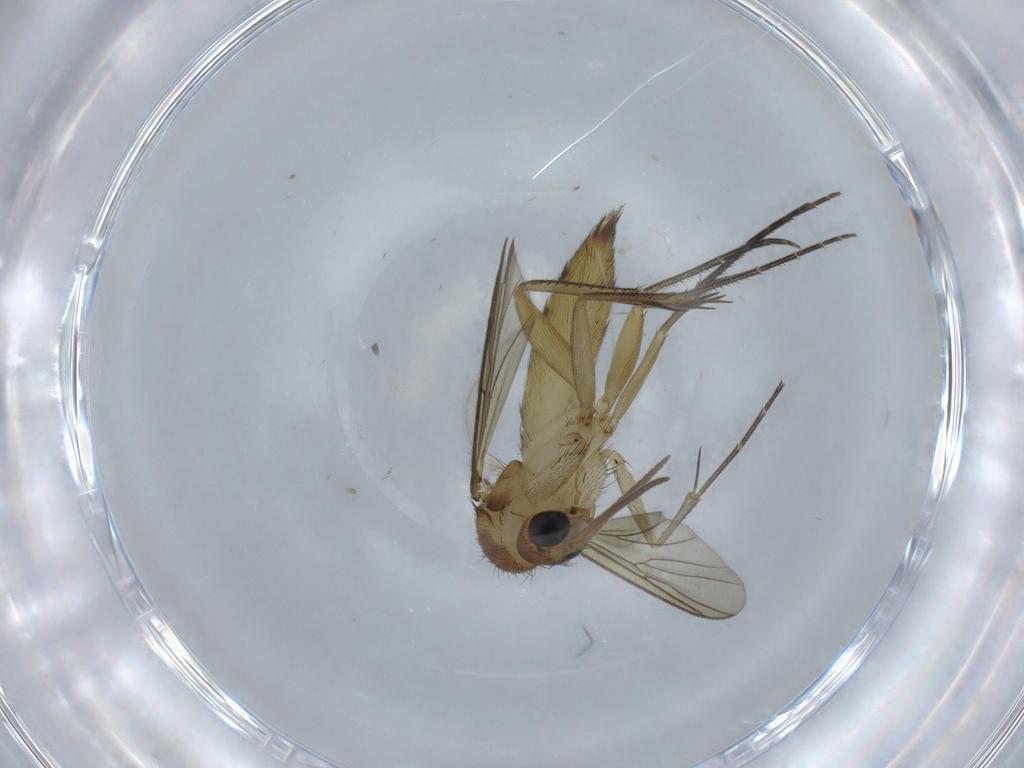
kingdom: Animalia
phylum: Arthropoda
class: Insecta
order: Diptera
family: Mycetophilidae
